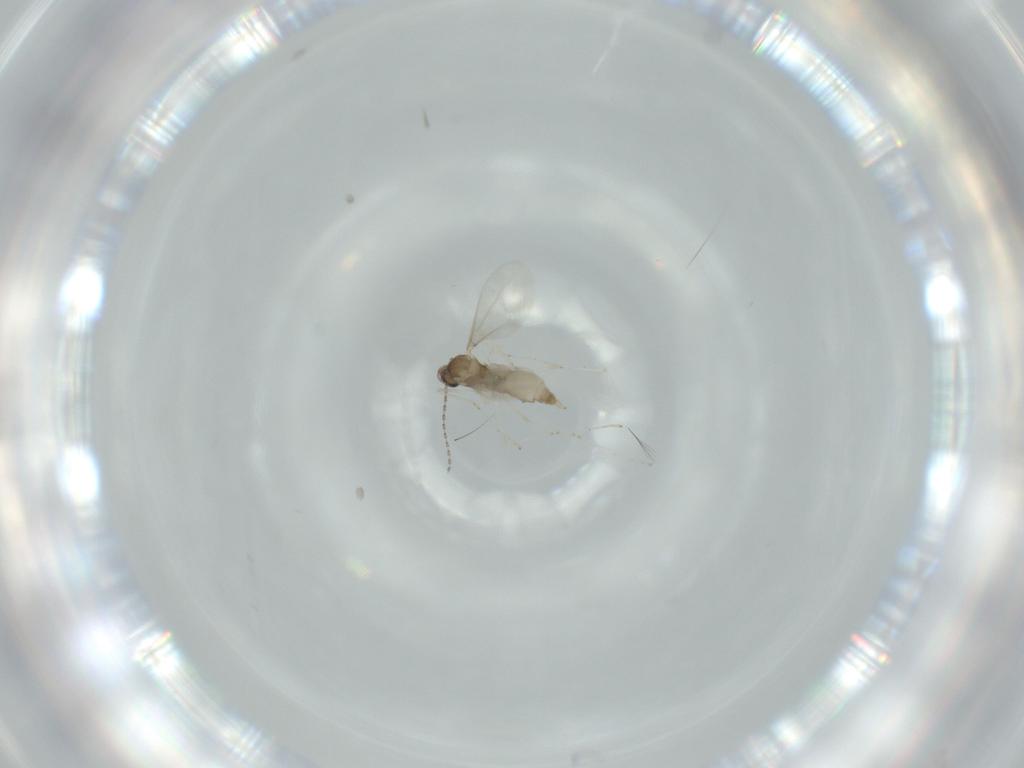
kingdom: Animalia
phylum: Arthropoda
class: Insecta
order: Diptera
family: Cecidomyiidae
